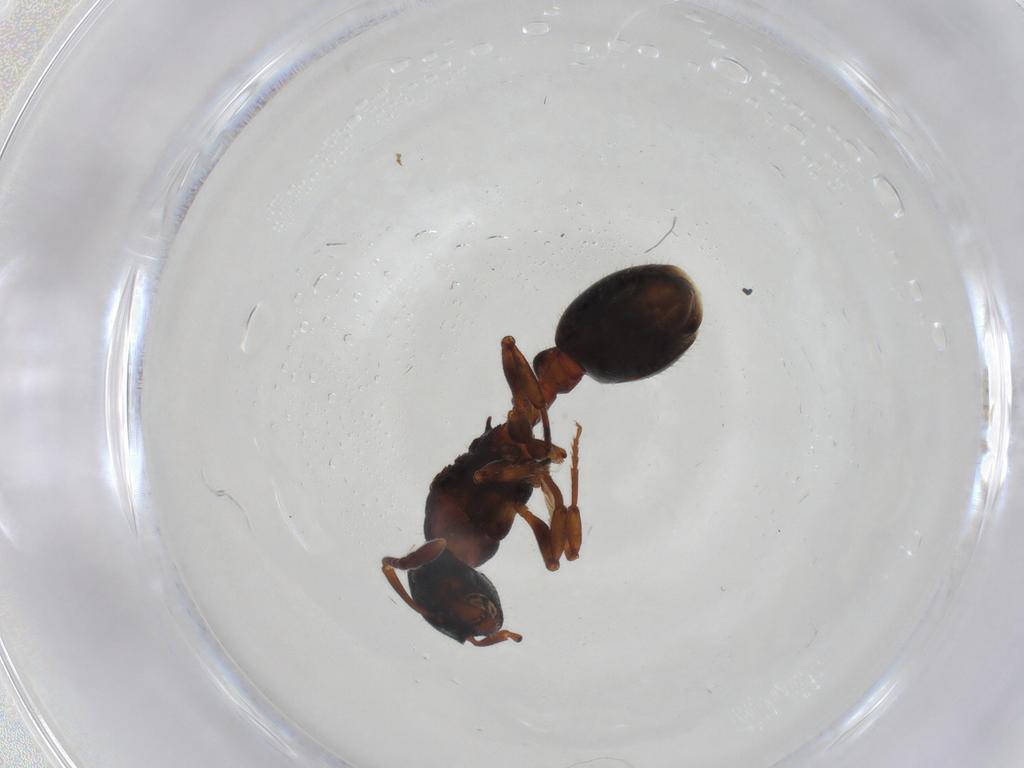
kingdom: Animalia
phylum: Arthropoda
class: Insecta
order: Hymenoptera
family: Formicidae
